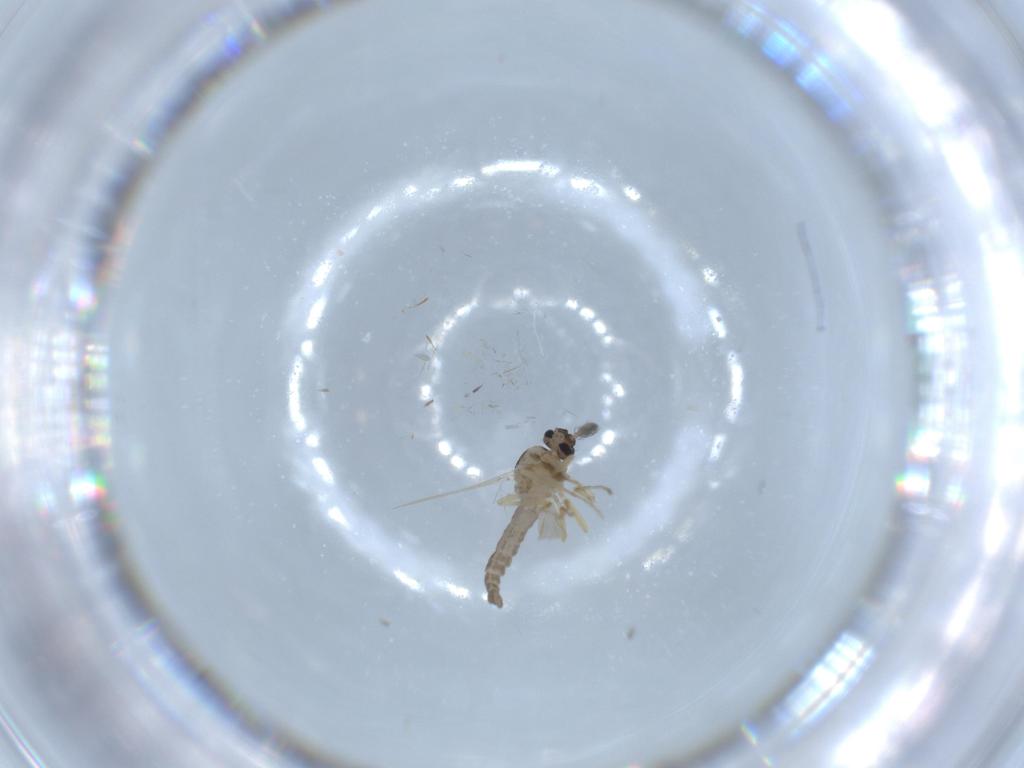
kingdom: Animalia
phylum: Arthropoda
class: Insecta
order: Diptera
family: Ceratopogonidae
